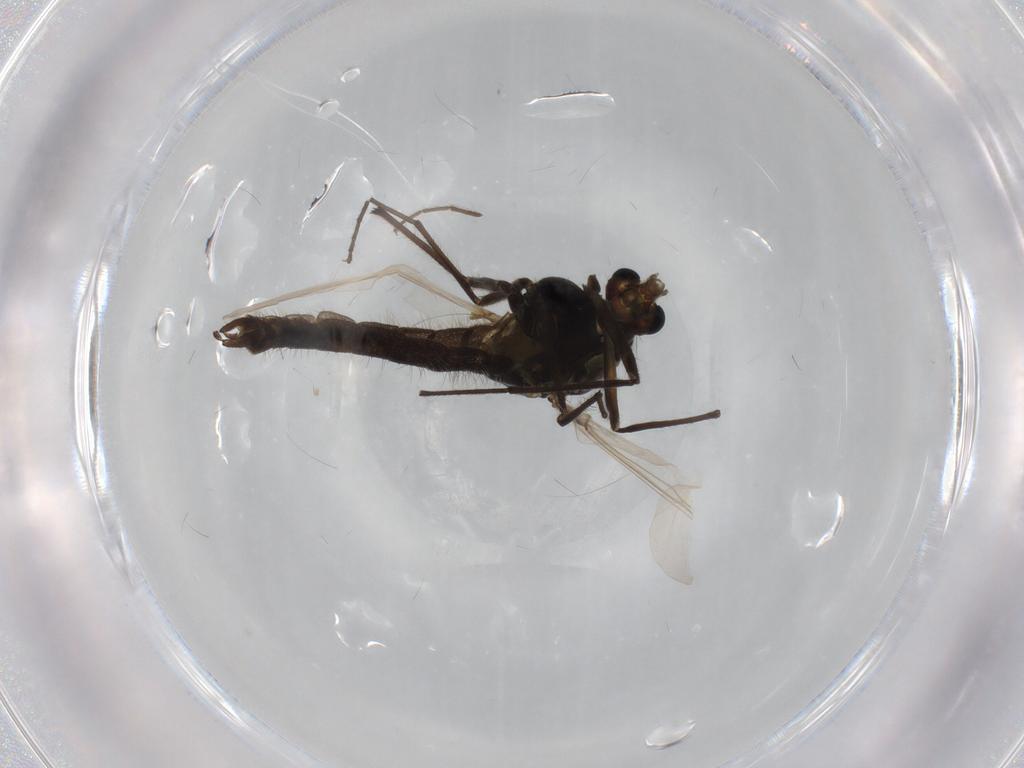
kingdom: Animalia
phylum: Arthropoda
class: Insecta
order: Diptera
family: Chironomidae
